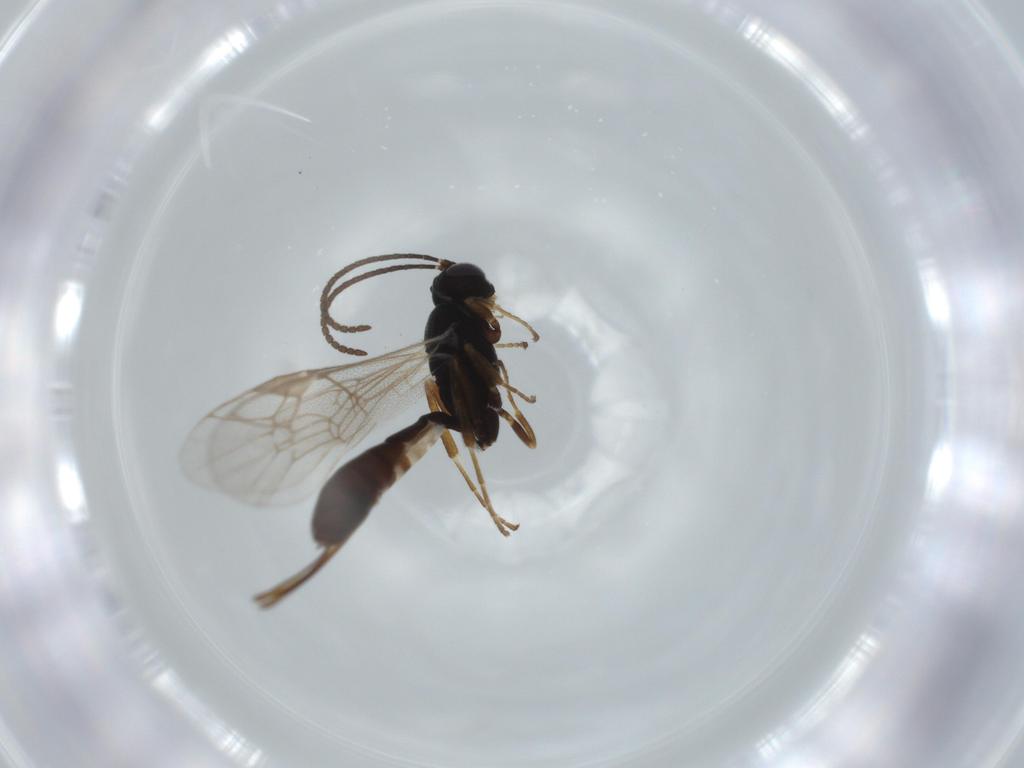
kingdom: Animalia
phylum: Arthropoda
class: Insecta
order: Hymenoptera
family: Ichneumonidae
